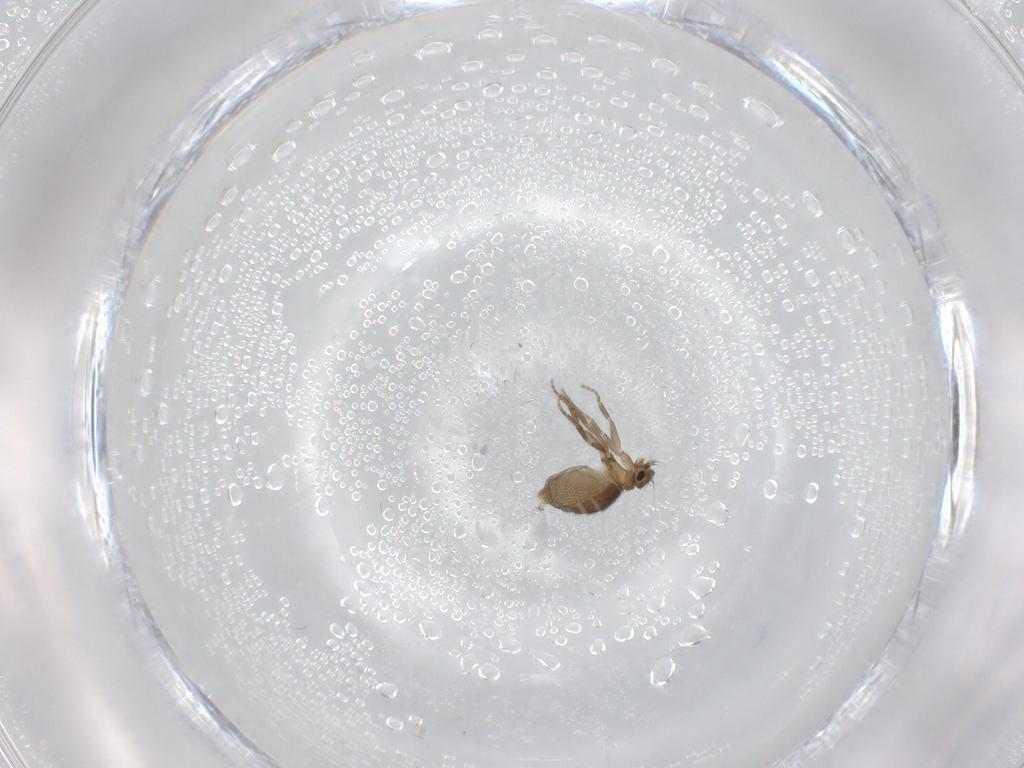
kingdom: Animalia
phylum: Arthropoda
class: Insecta
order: Diptera
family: Phoridae
